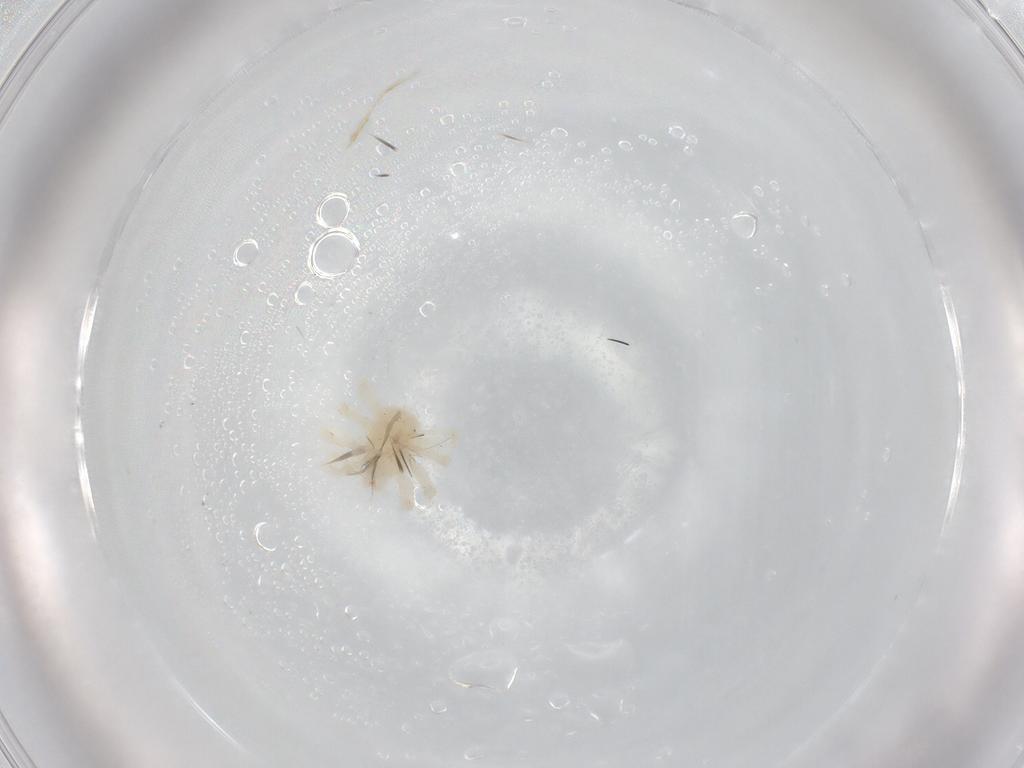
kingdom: Animalia
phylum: Arthropoda
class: Arachnida
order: Trombidiformes
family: Anystidae
